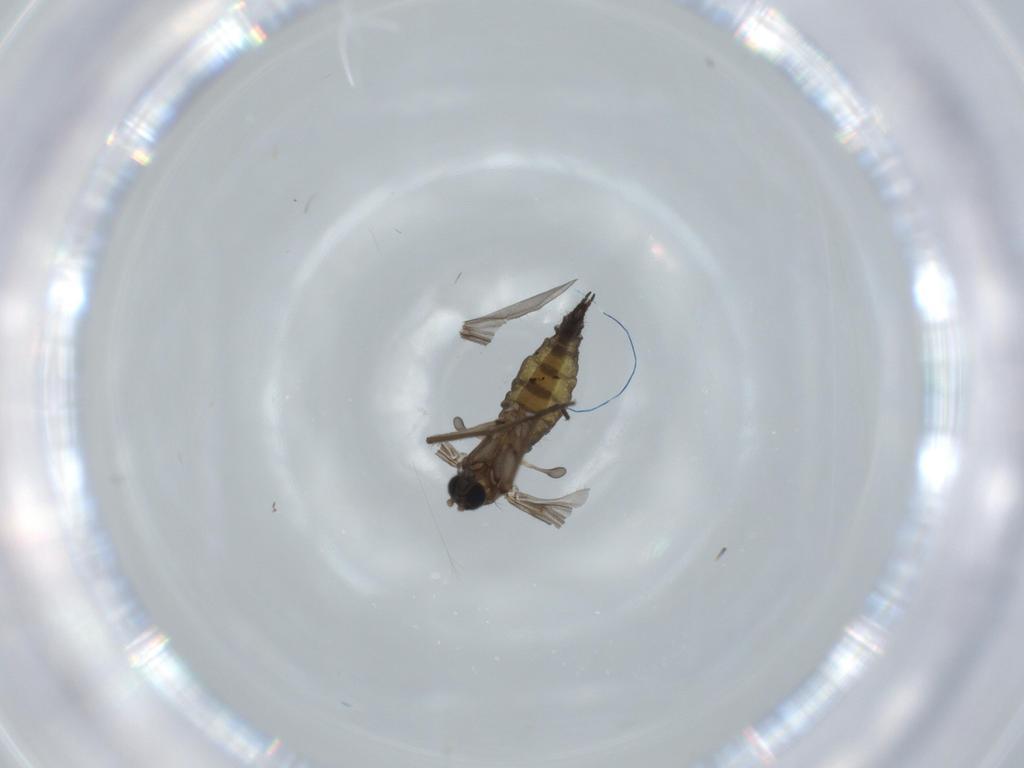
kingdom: Animalia
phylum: Arthropoda
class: Insecta
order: Diptera
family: Sciaridae
